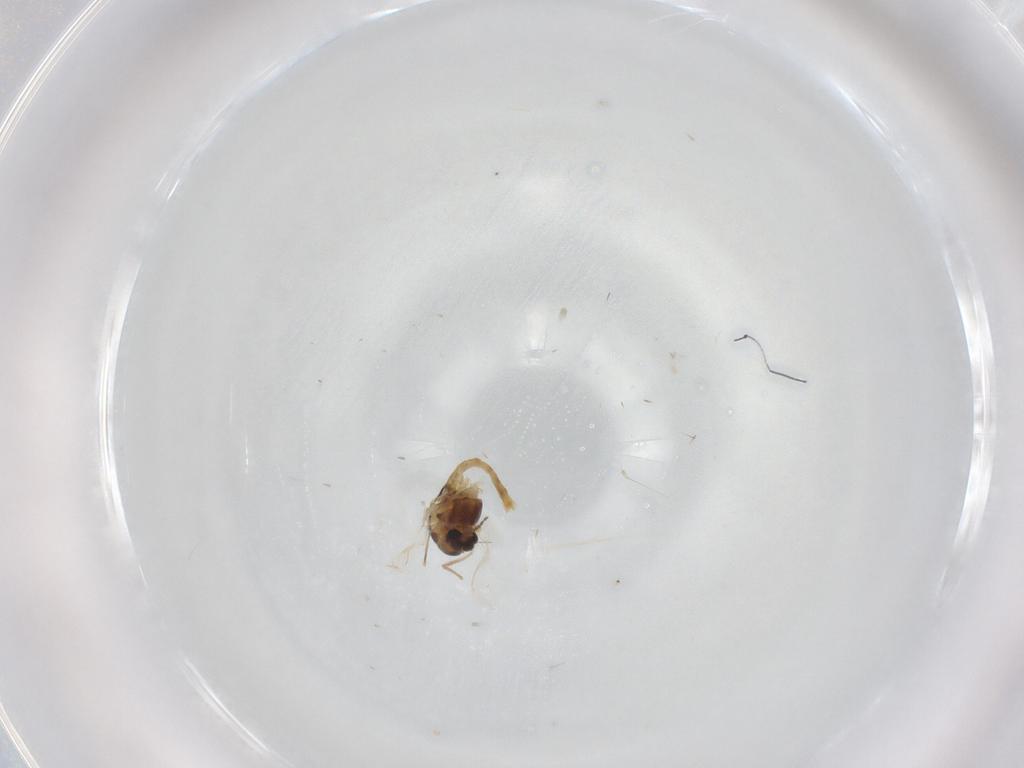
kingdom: Animalia
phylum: Arthropoda
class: Insecta
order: Diptera
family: Chironomidae
